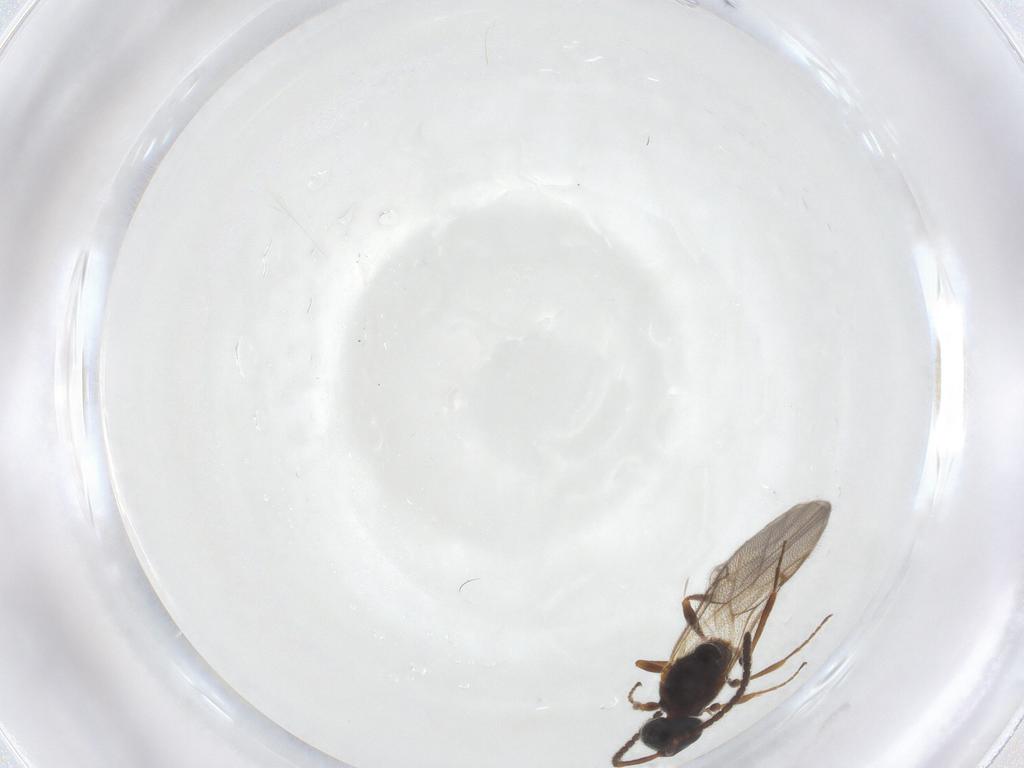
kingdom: Animalia
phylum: Arthropoda
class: Insecta
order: Hymenoptera
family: Diapriidae
